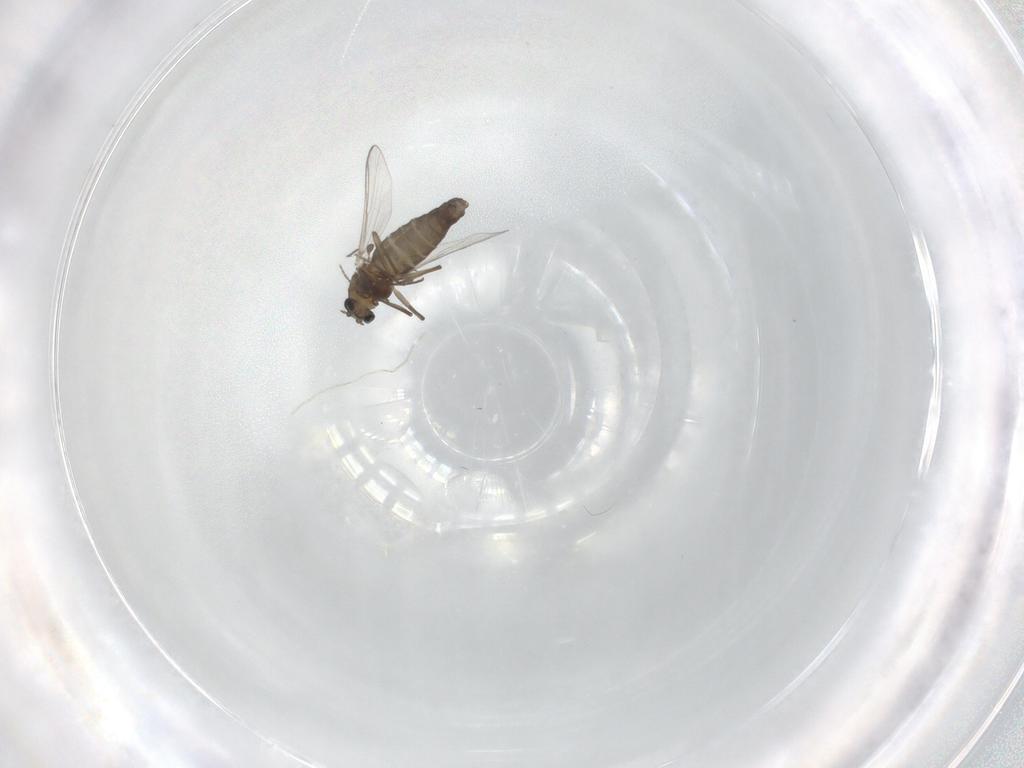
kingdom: Animalia
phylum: Arthropoda
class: Insecta
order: Diptera
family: Chironomidae
